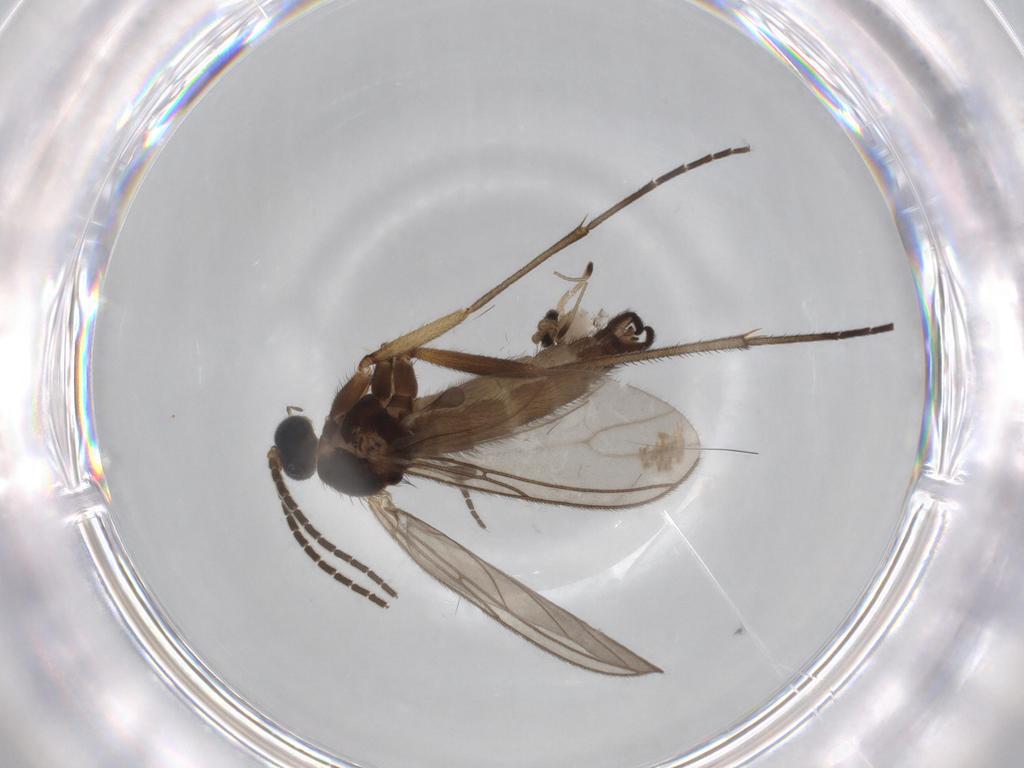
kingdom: Animalia
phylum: Arthropoda
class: Insecta
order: Diptera
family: Sciaridae
